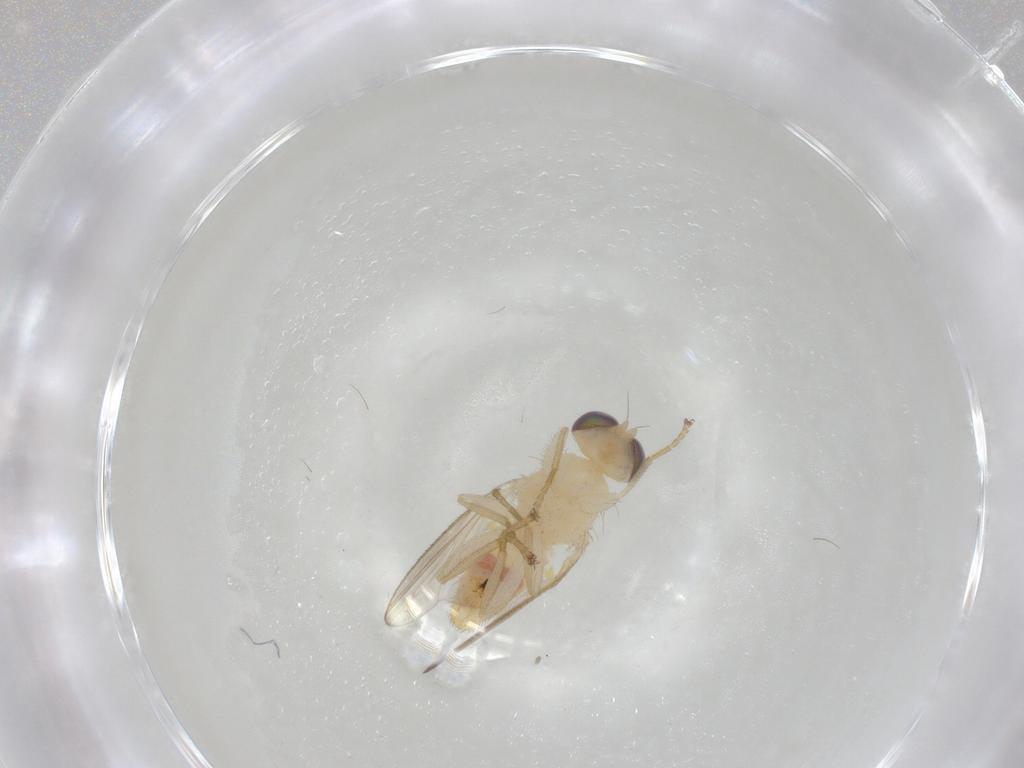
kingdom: Animalia
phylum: Arthropoda
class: Insecta
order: Diptera
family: Chyromyidae
